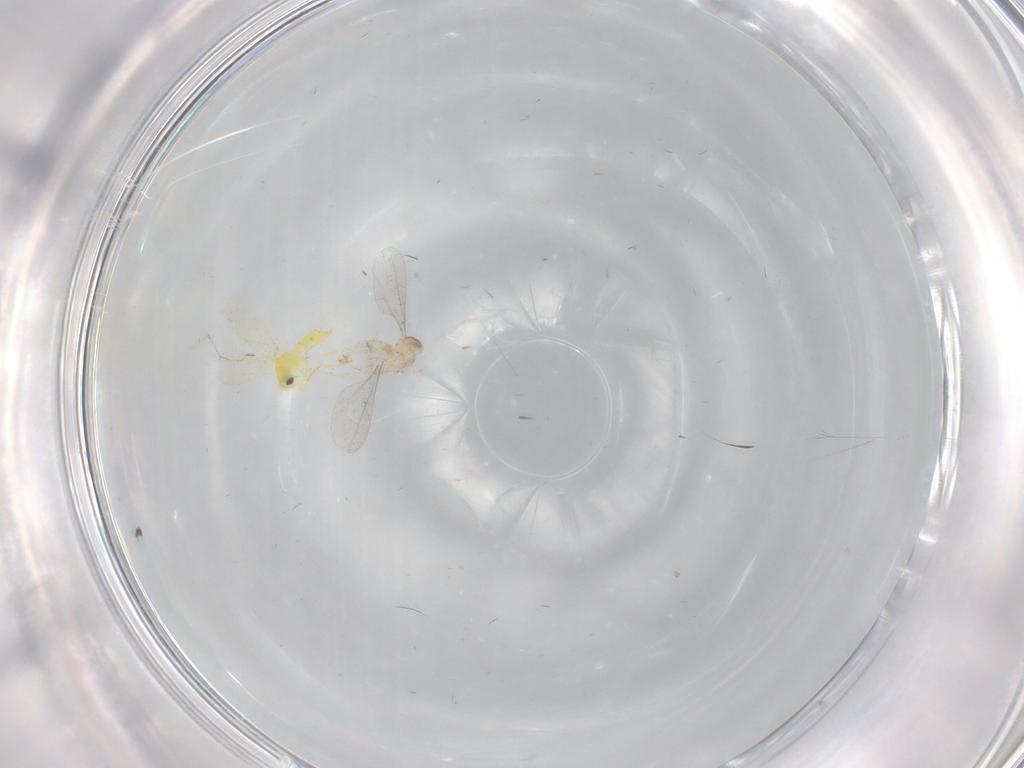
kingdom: Animalia
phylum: Arthropoda
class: Insecta
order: Diptera
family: Cecidomyiidae
